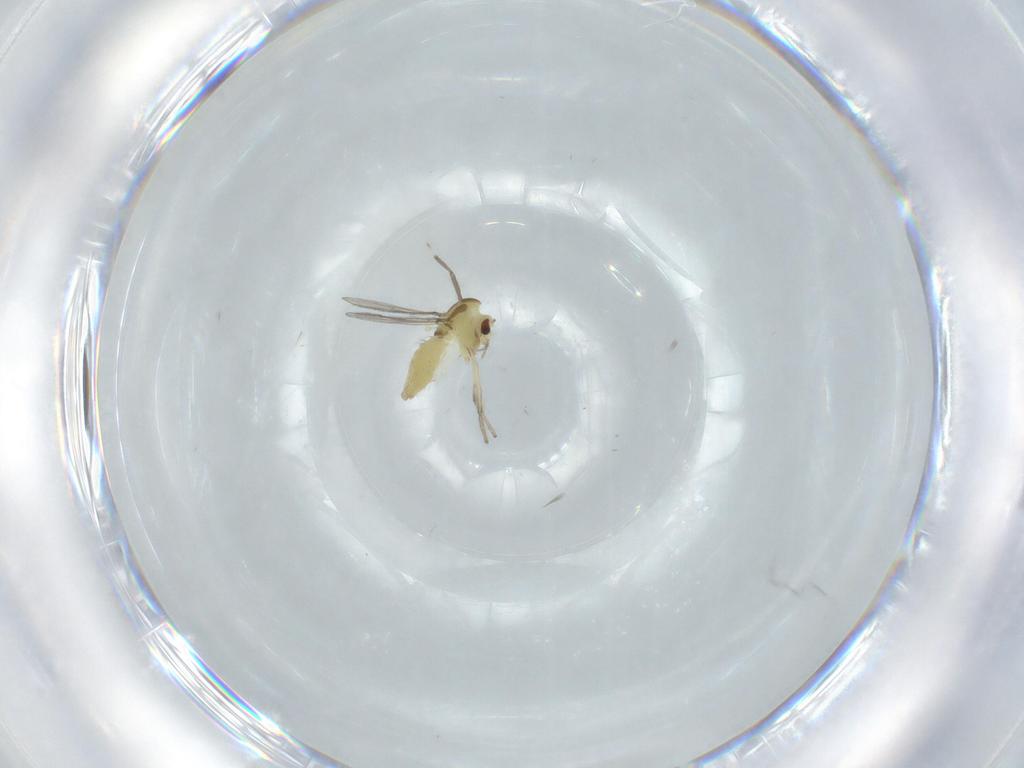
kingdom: Animalia
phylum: Arthropoda
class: Insecta
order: Diptera
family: Chironomidae
